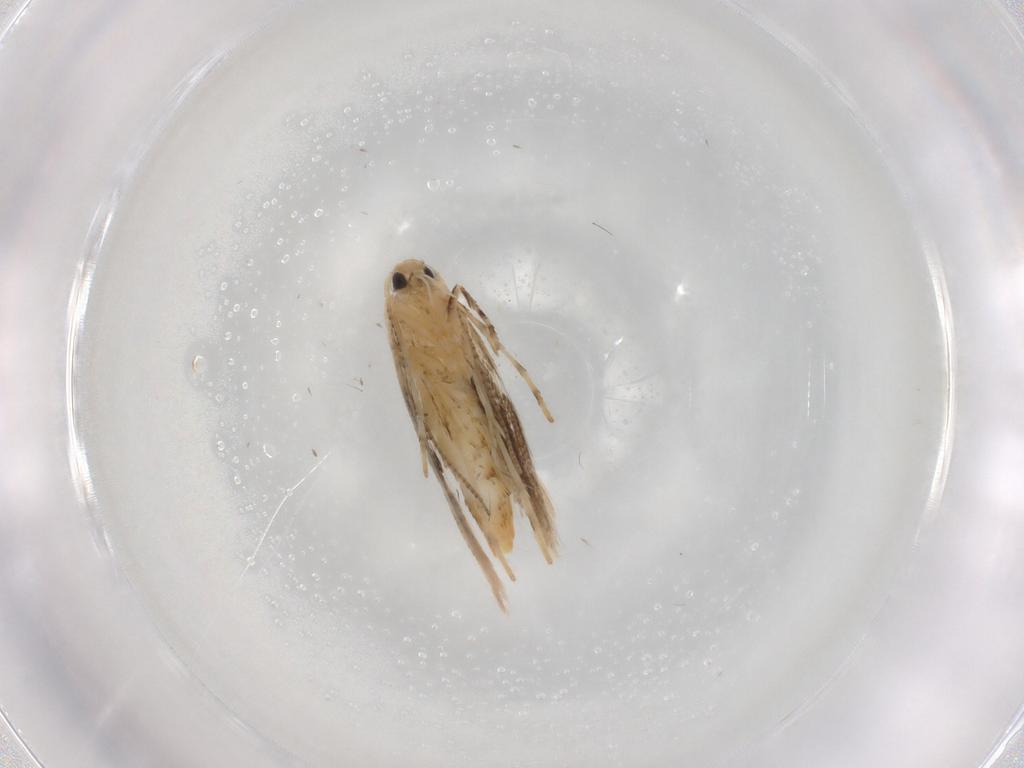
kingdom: Animalia
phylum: Arthropoda
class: Insecta
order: Lepidoptera
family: Gracillariidae
